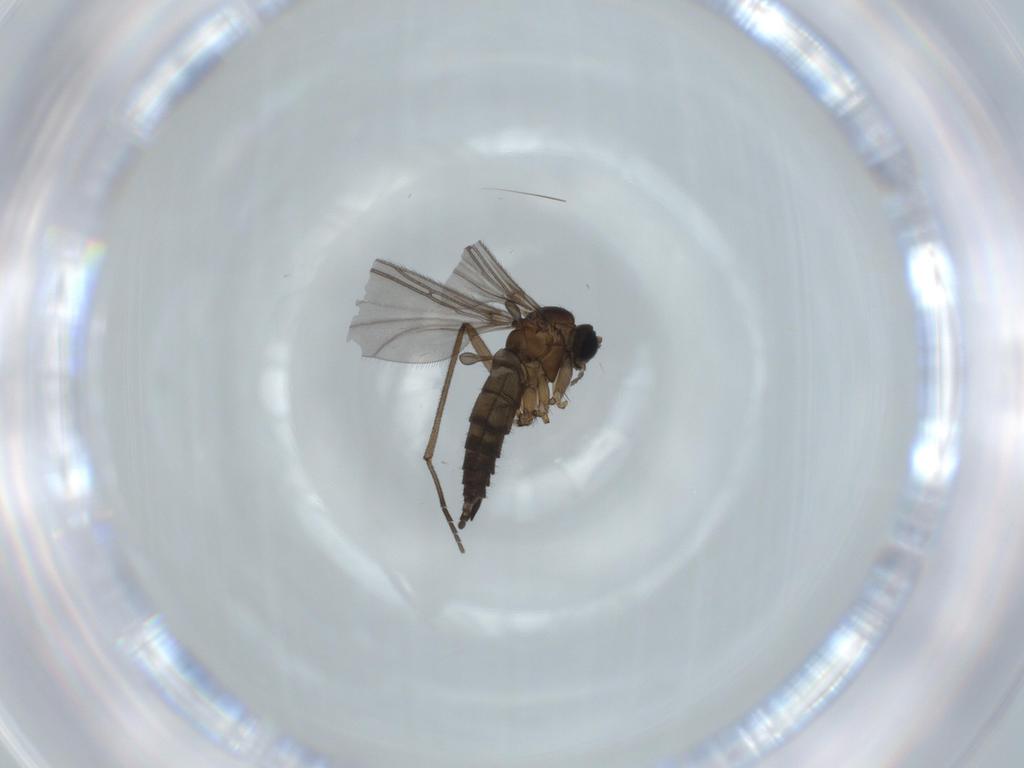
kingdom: Animalia
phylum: Arthropoda
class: Insecta
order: Diptera
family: Sciaridae
